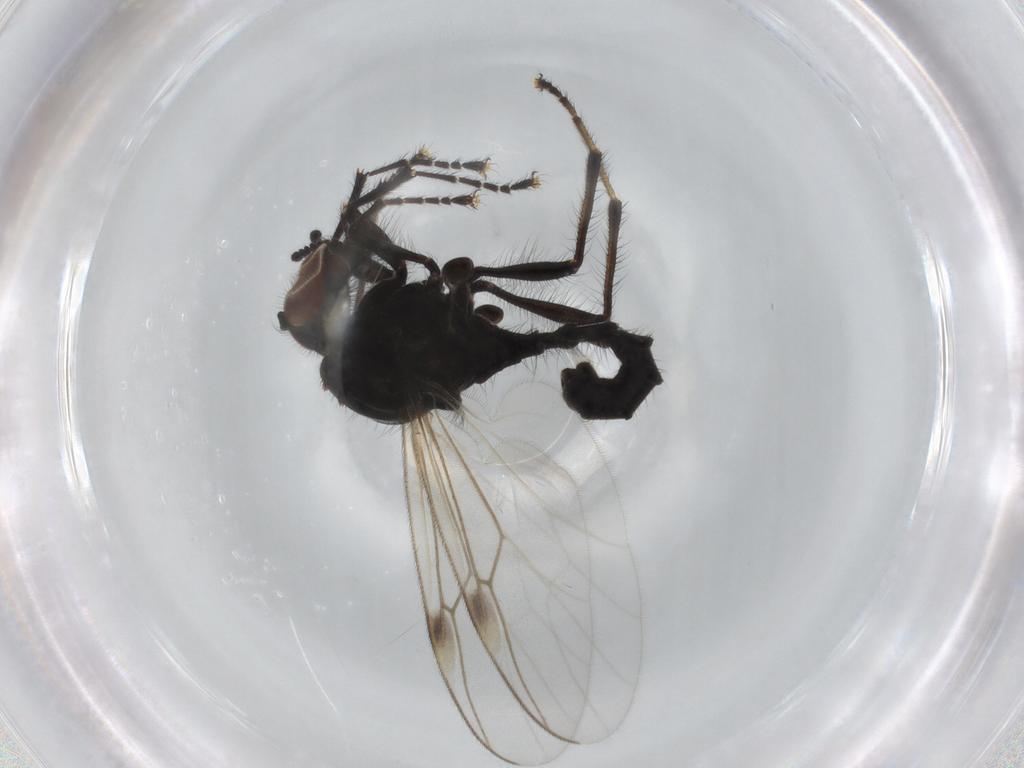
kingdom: Animalia
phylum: Arthropoda
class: Insecta
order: Diptera
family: Bibionidae
